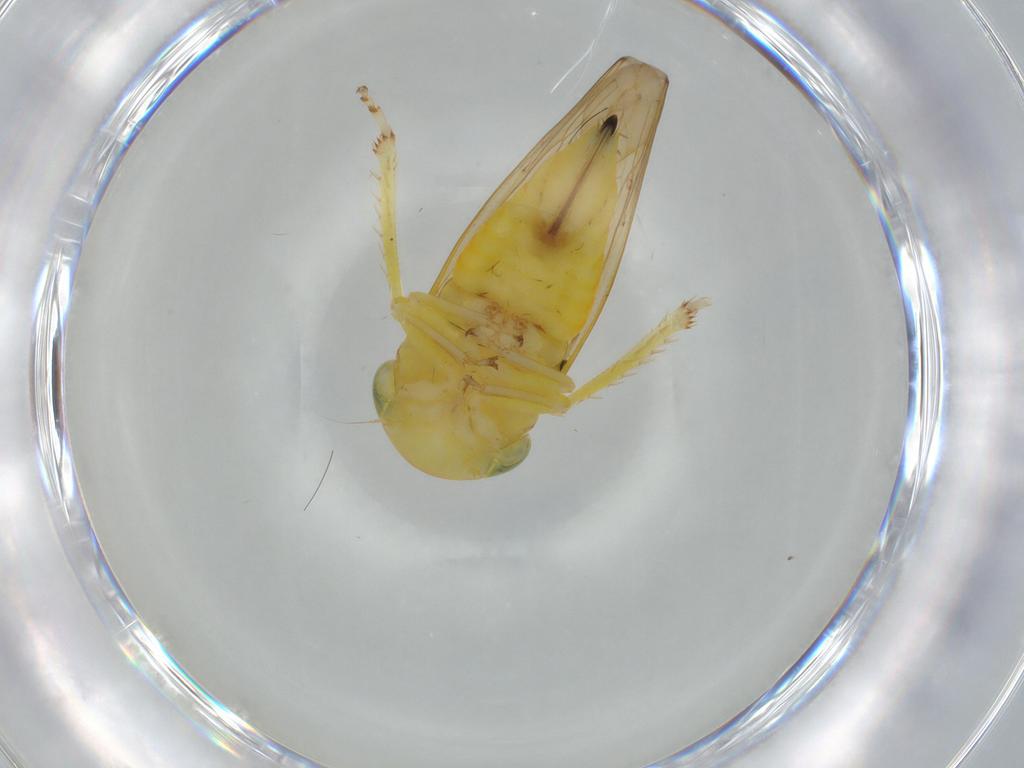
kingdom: Animalia
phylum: Arthropoda
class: Insecta
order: Hemiptera
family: Cicadellidae
